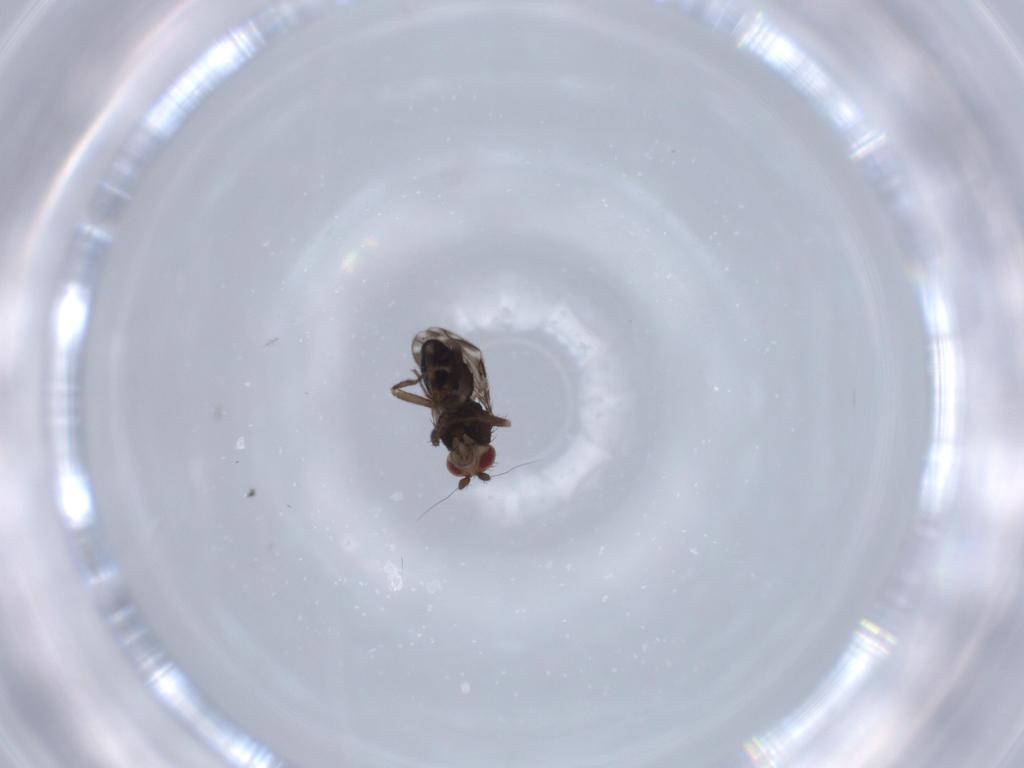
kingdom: Animalia
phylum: Arthropoda
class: Insecta
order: Diptera
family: Sphaeroceridae
